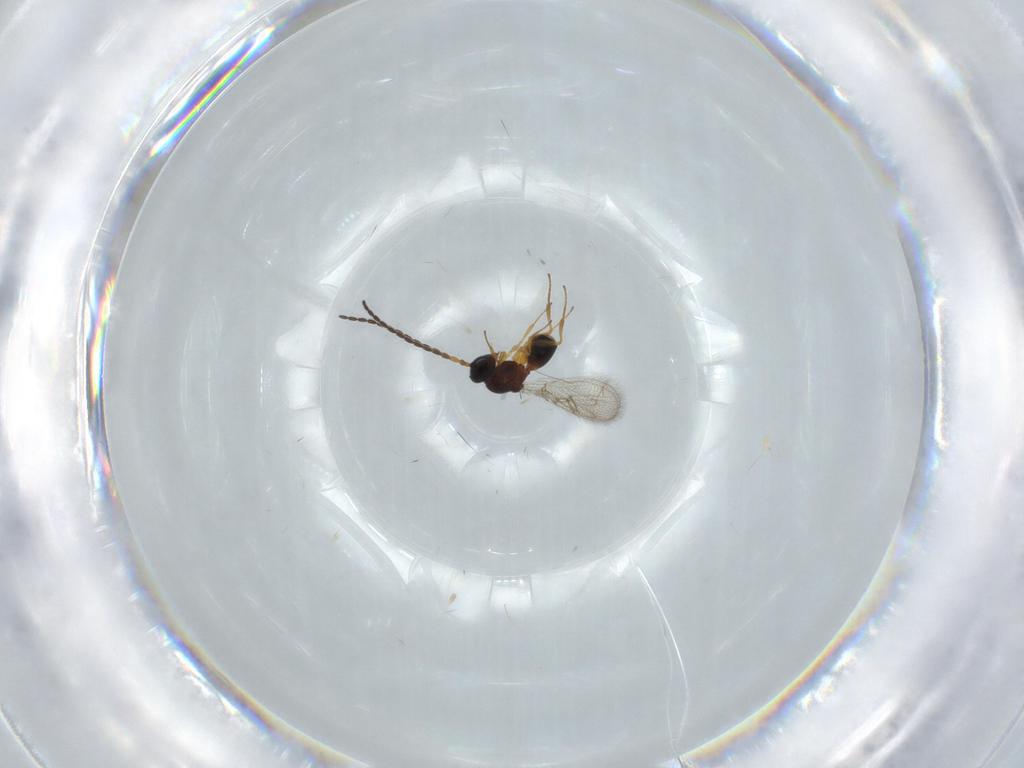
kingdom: Animalia
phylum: Arthropoda
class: Insecta
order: Hymenoptera
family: Figitidae
